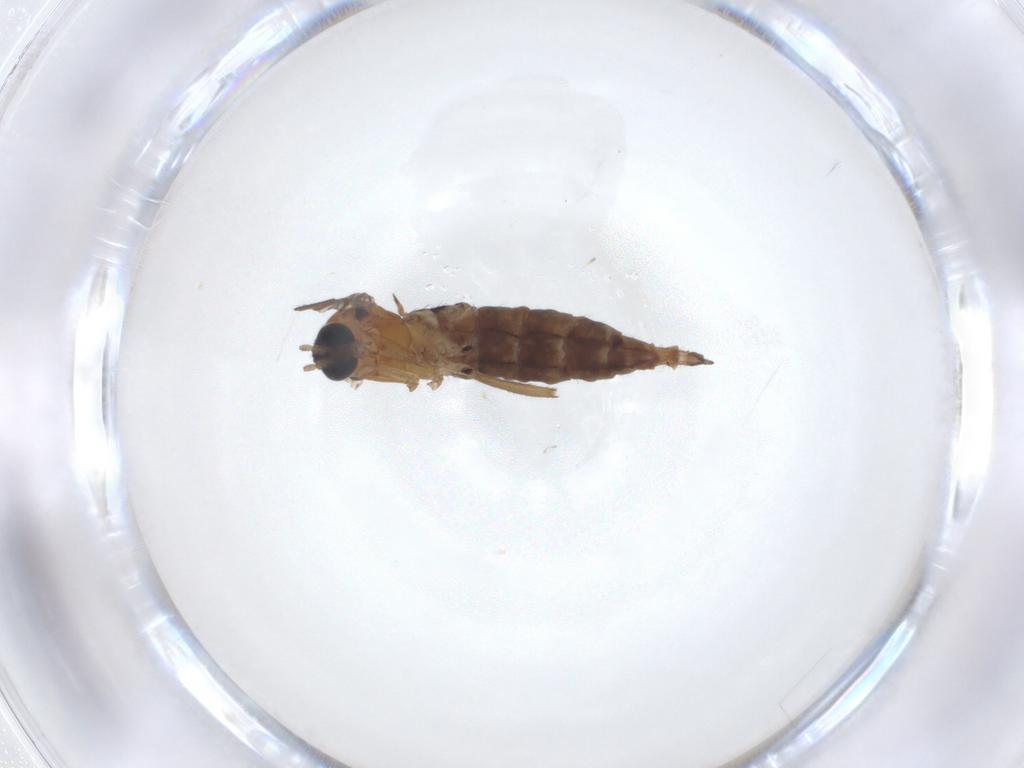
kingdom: Animalia
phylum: Arthropoda
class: Insecta
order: Diptera
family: Sciaridae
